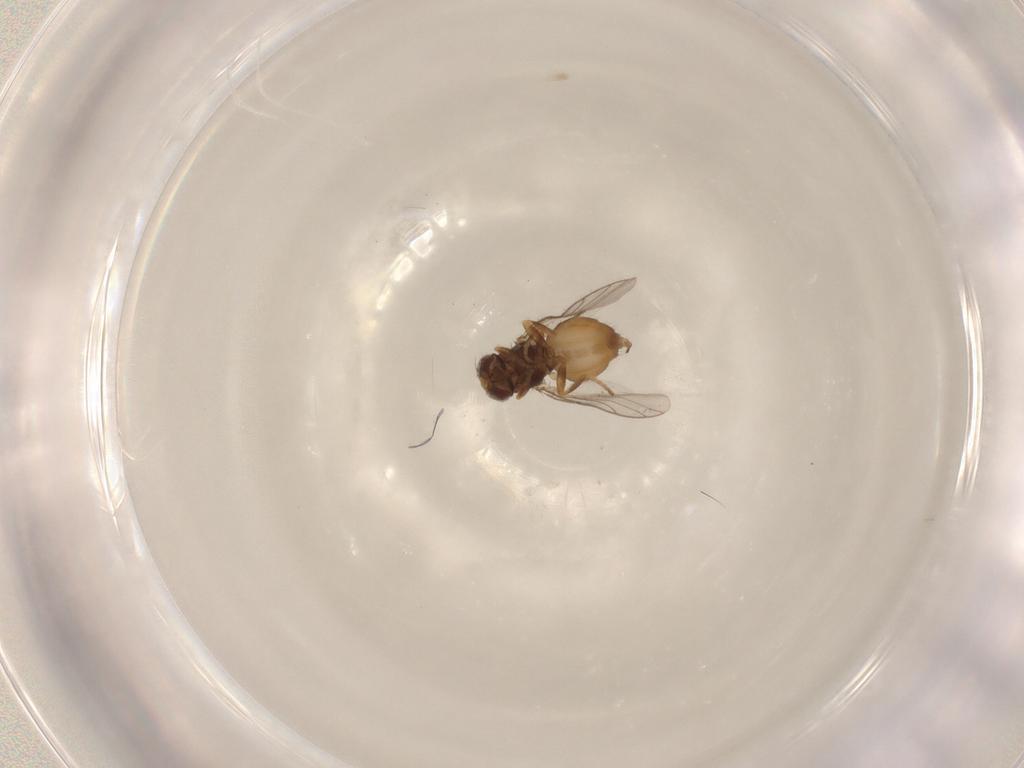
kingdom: Animalia
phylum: Arthropoda
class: Insecta
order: Diptera
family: Chloropidae
